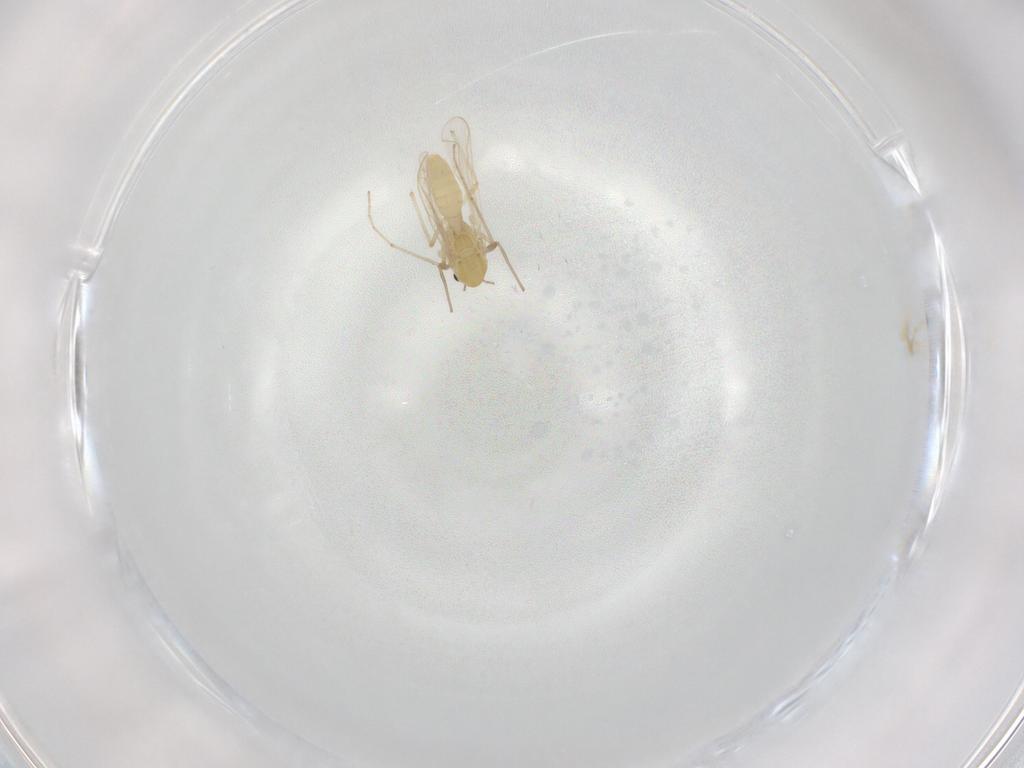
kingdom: Animalia
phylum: Arthropoda
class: Insecta
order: Diptera
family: Chironomidae
